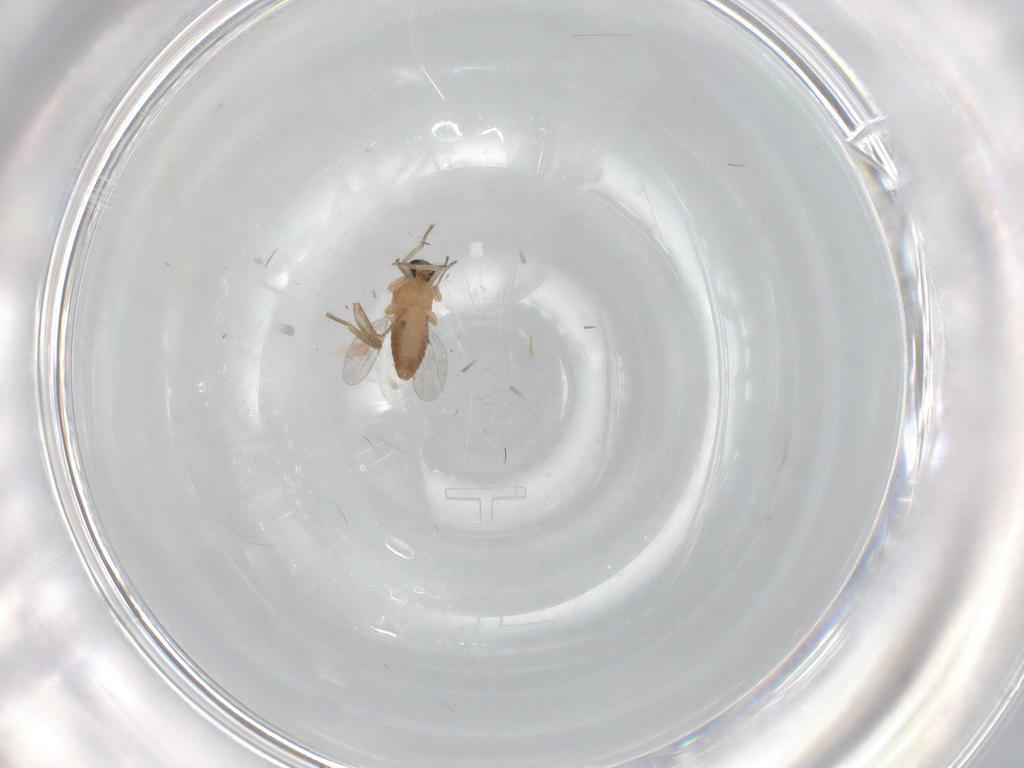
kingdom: Animalia
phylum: Arthropoda
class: Insecta
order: Diptera
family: Ceratopogonidae
